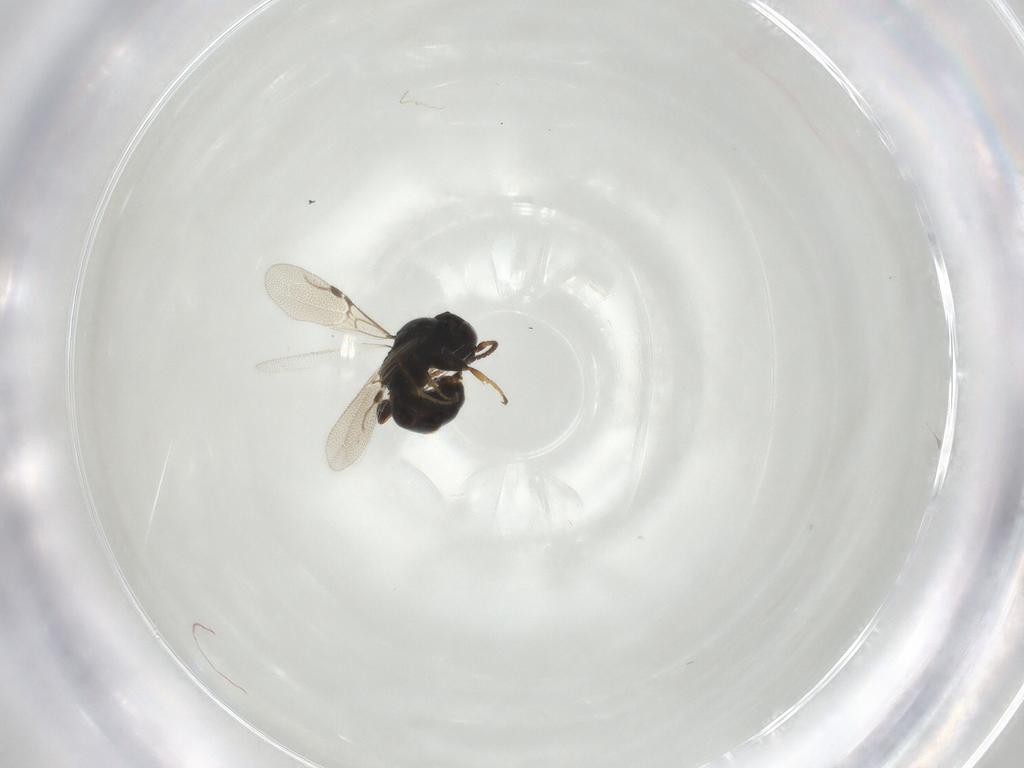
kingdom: Animalia
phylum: Arthropoda
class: Insecta
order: Hymenoptera
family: Bethylidae
